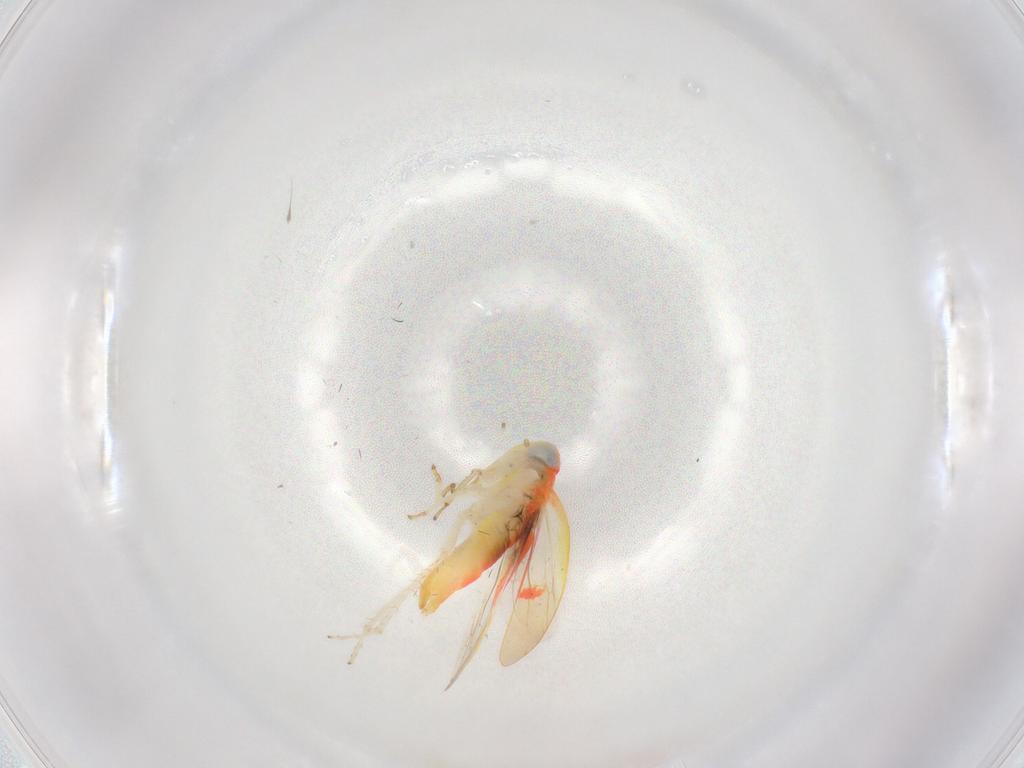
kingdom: Animalia
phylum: Arthropoda
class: Insecta
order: Hemiptera
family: Cicadellidae
